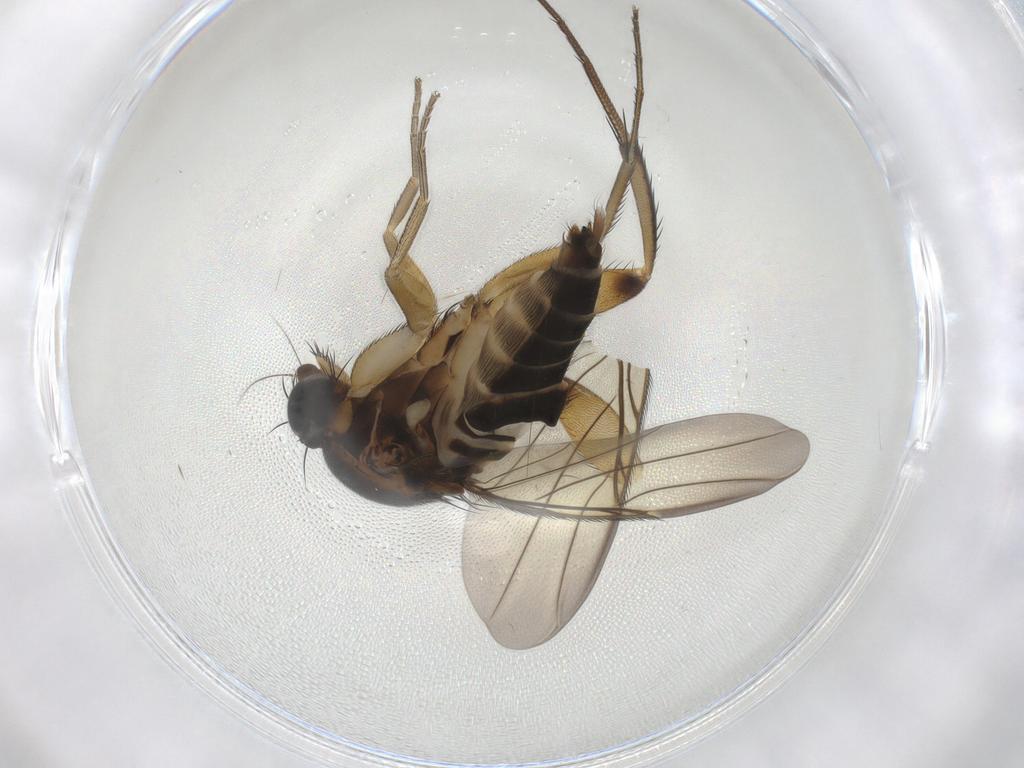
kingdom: Animalia
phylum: Arthropoda
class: Insecta
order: Diptera
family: Phoridae
